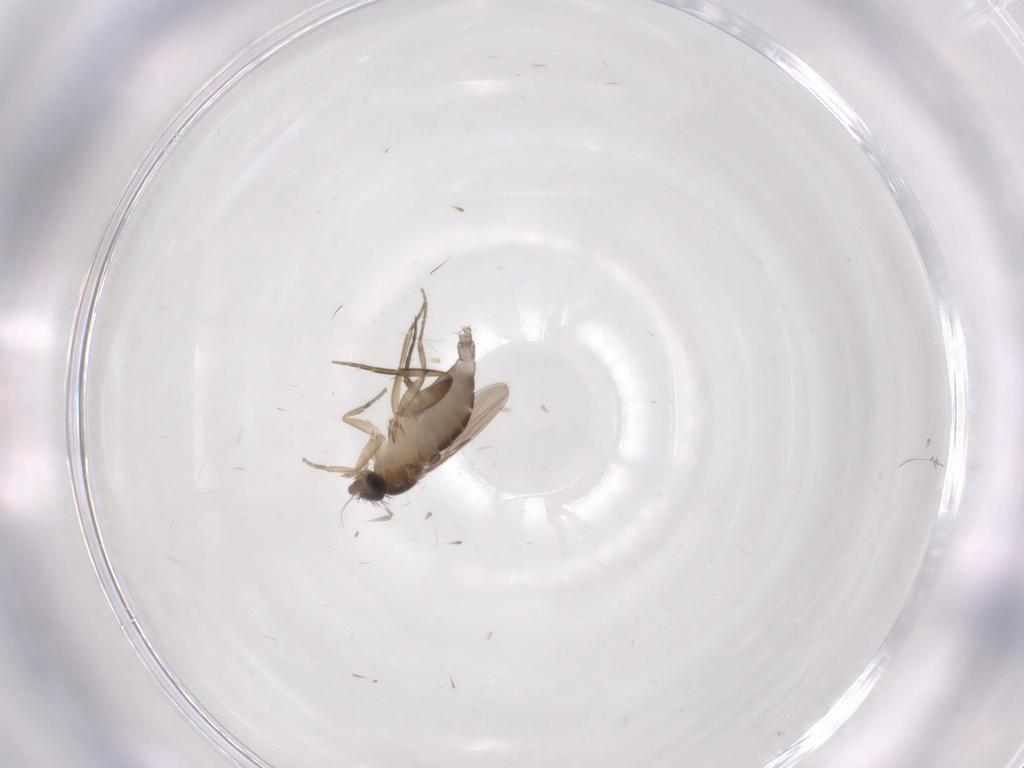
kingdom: Animalia
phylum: Arthropoda
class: Insecta
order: Diptera
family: Phoridae
